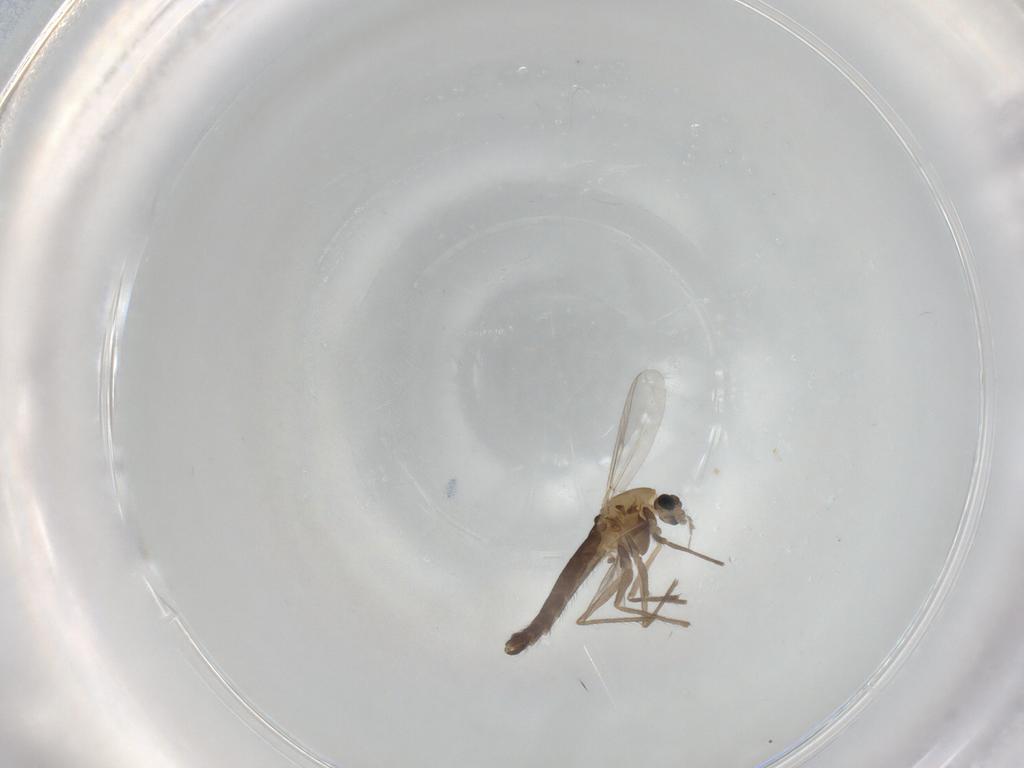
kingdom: Animalia
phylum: Arthropoda
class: Insecta
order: Diptera
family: Chironomidae
